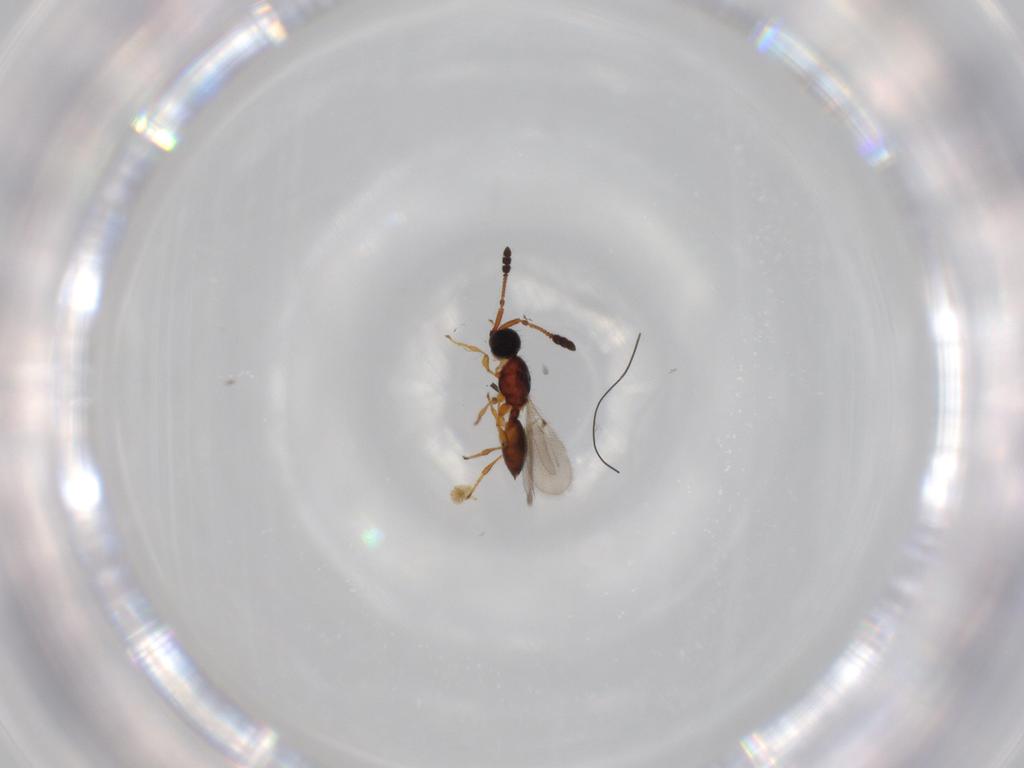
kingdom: Animalia
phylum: Arthropoda
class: Insecta
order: Hymenoptera
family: Diapriidae
